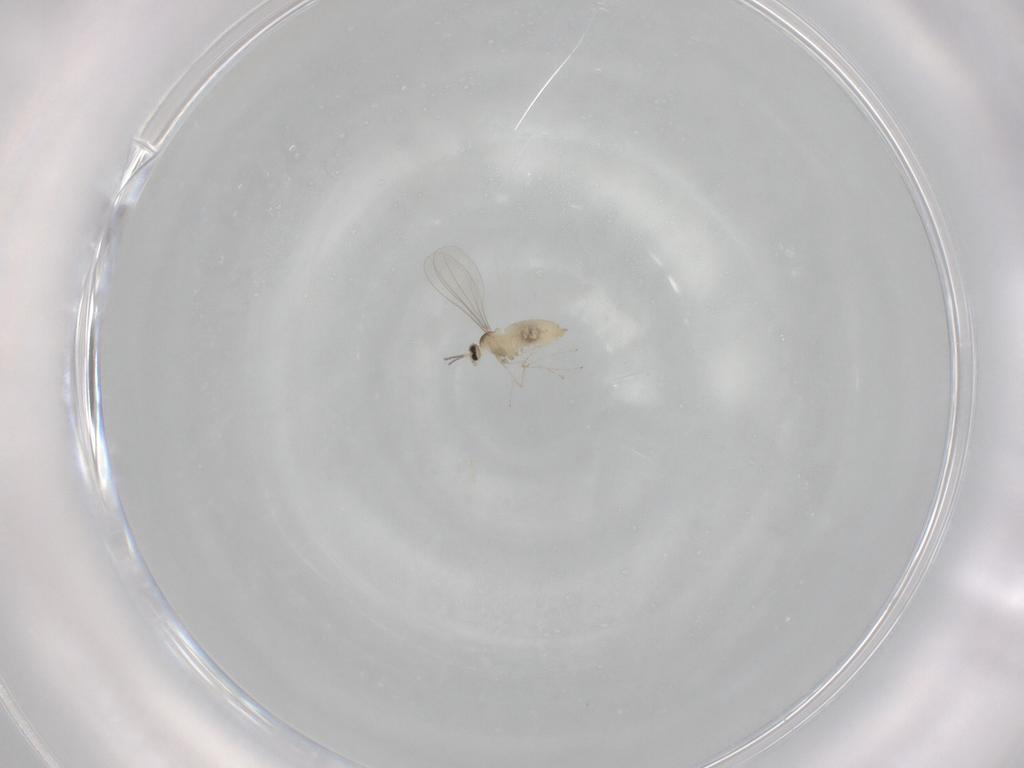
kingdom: Animalia
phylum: Arthropoda
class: Insecta
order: Diptera
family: Cecidomyiidae
